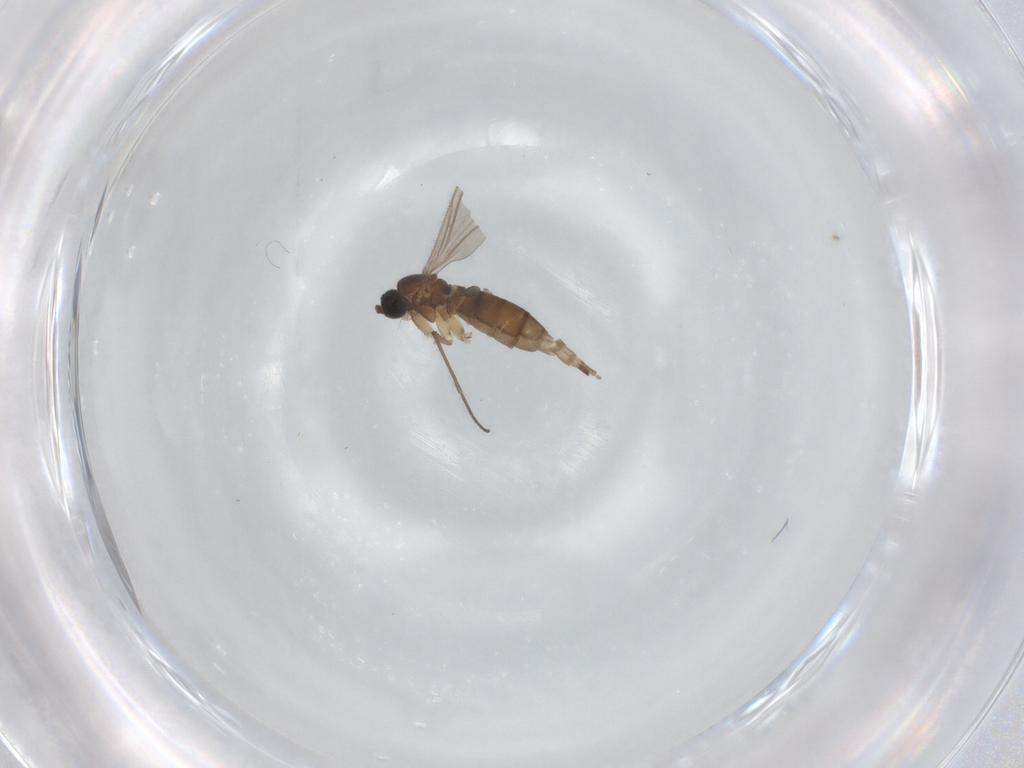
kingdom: Animalia
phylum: Arthropoda
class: Insecta
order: Diptera
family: Sciaridae
